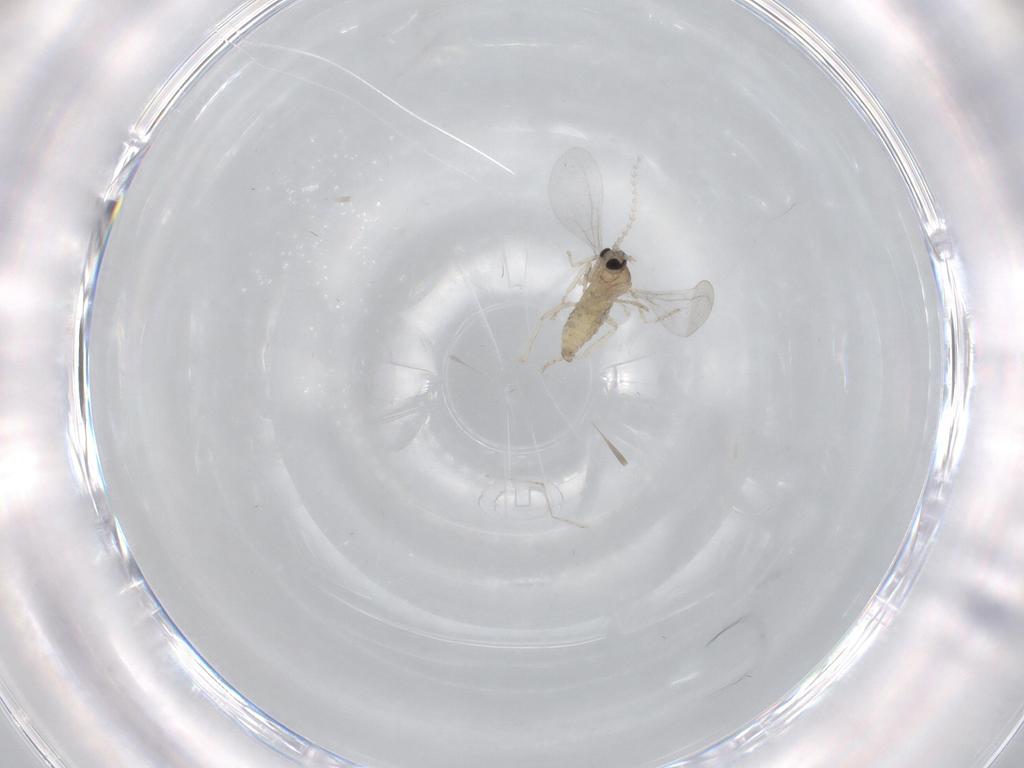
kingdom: Animalia
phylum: Arthropoda
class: Insecta
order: Diptera
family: Chironomidae
